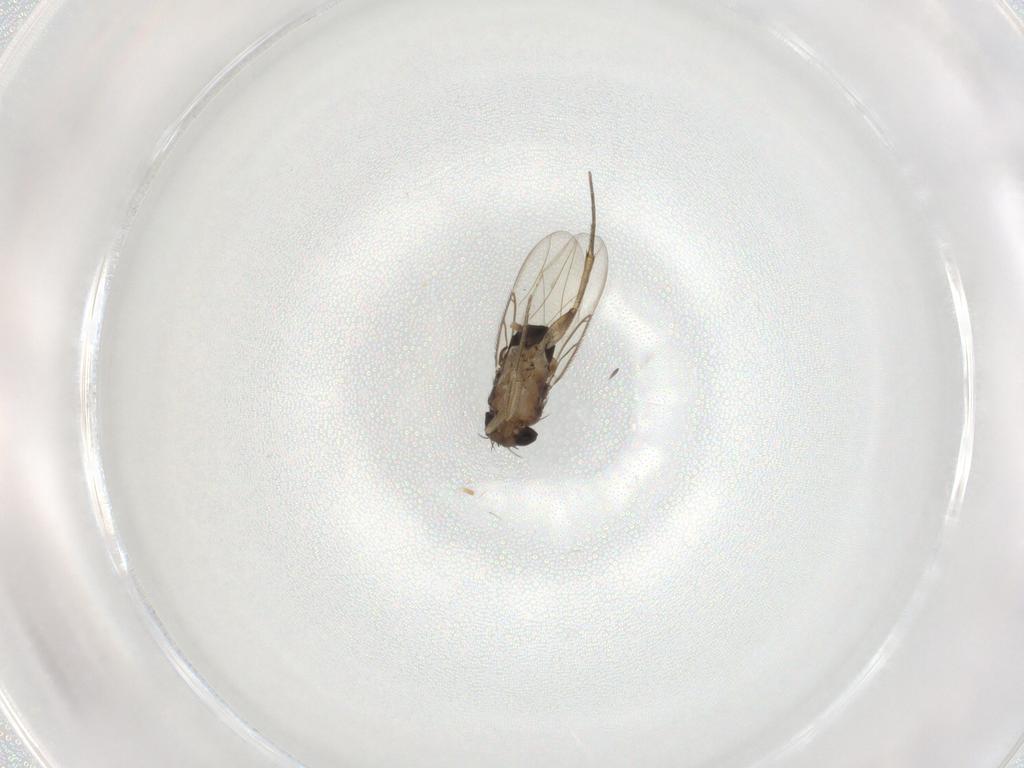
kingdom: Animalia
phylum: Arthropoda
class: Insecta
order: Diptera
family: Phoridae
